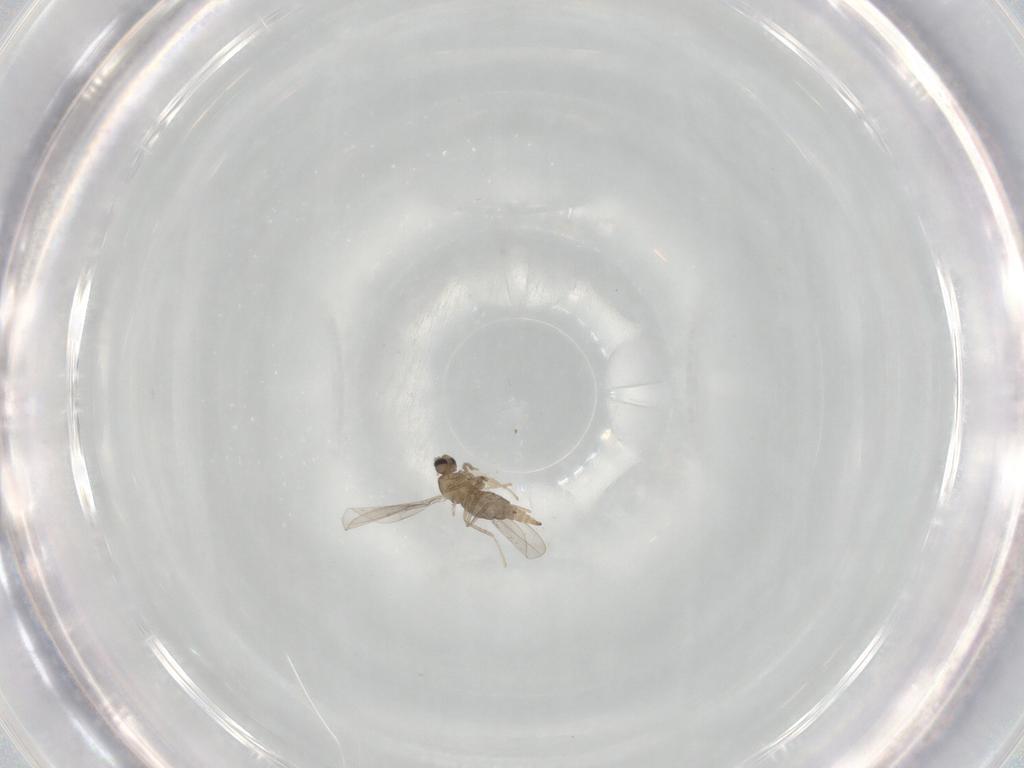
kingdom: Animalia
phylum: Arthropoda
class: Insecta
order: Diptera
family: Cecidomyiidae
